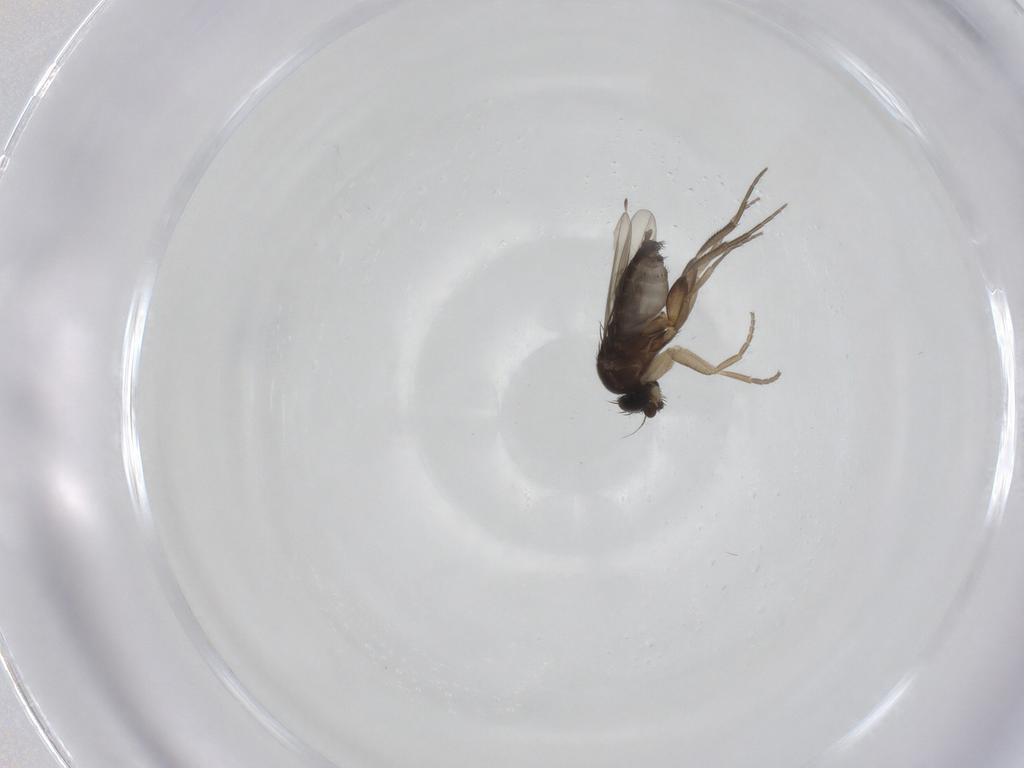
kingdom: Animalia
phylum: Arthropoda
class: Insecta
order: Diptera
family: Phoridae
